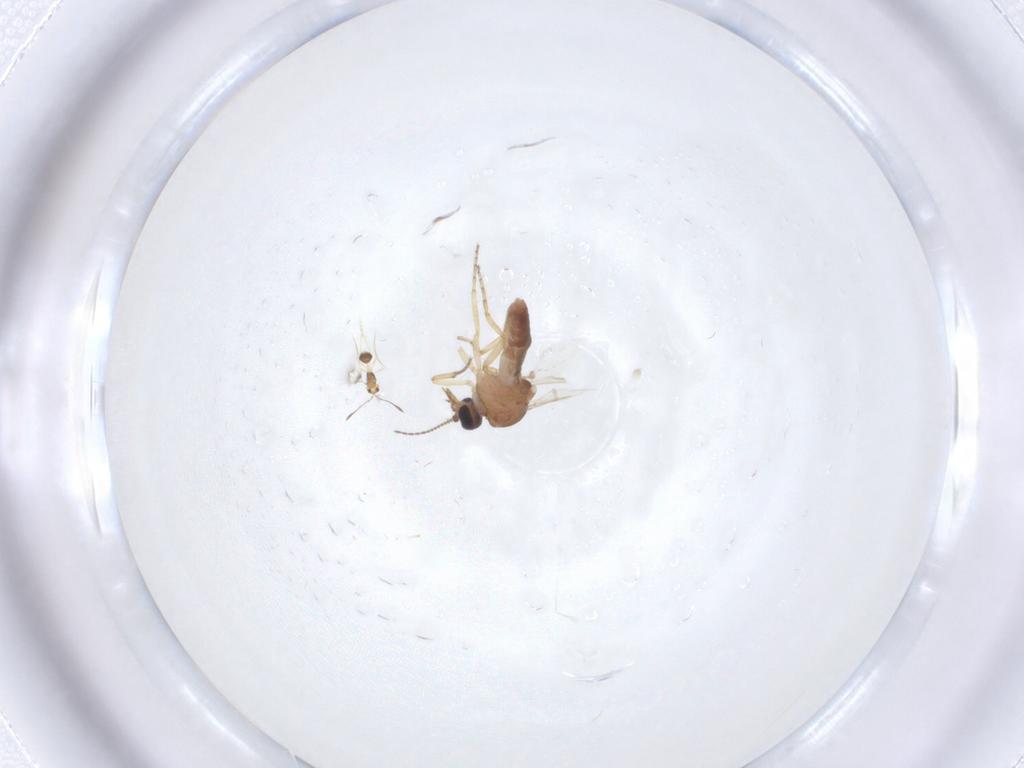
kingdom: Animalia
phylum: Arthropoda
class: Insecta
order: Diptera
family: Ceratopogonidae
